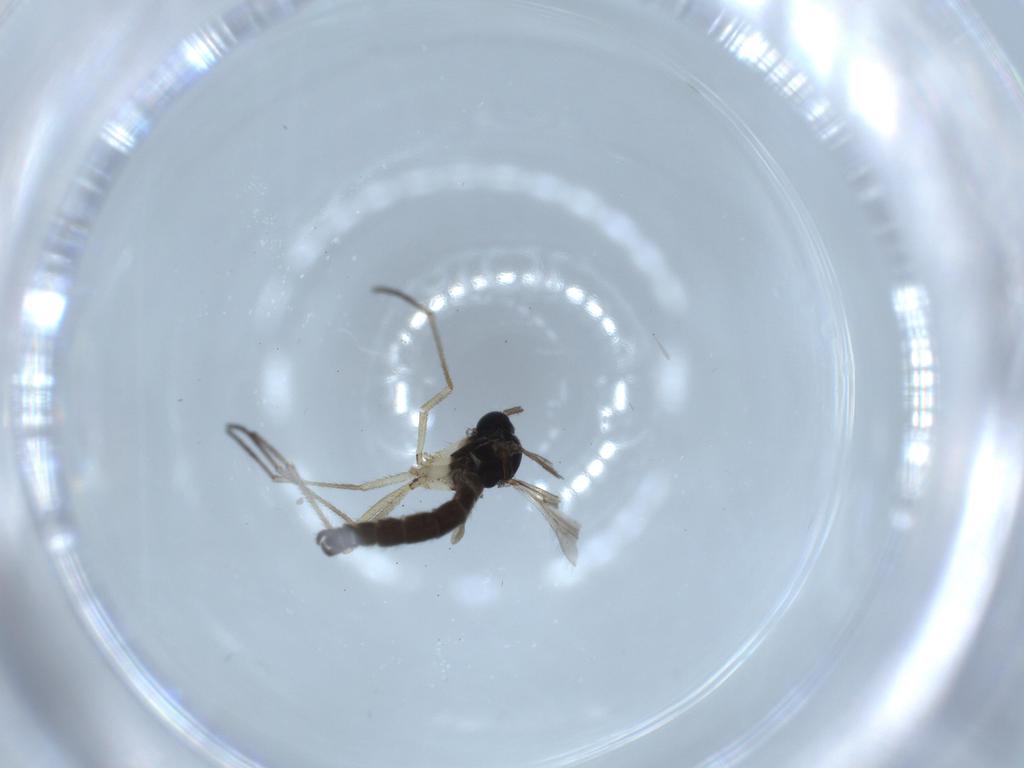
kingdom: Animalia
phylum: Arthropoda
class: Insecta
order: Diptera
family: Sciaridae
